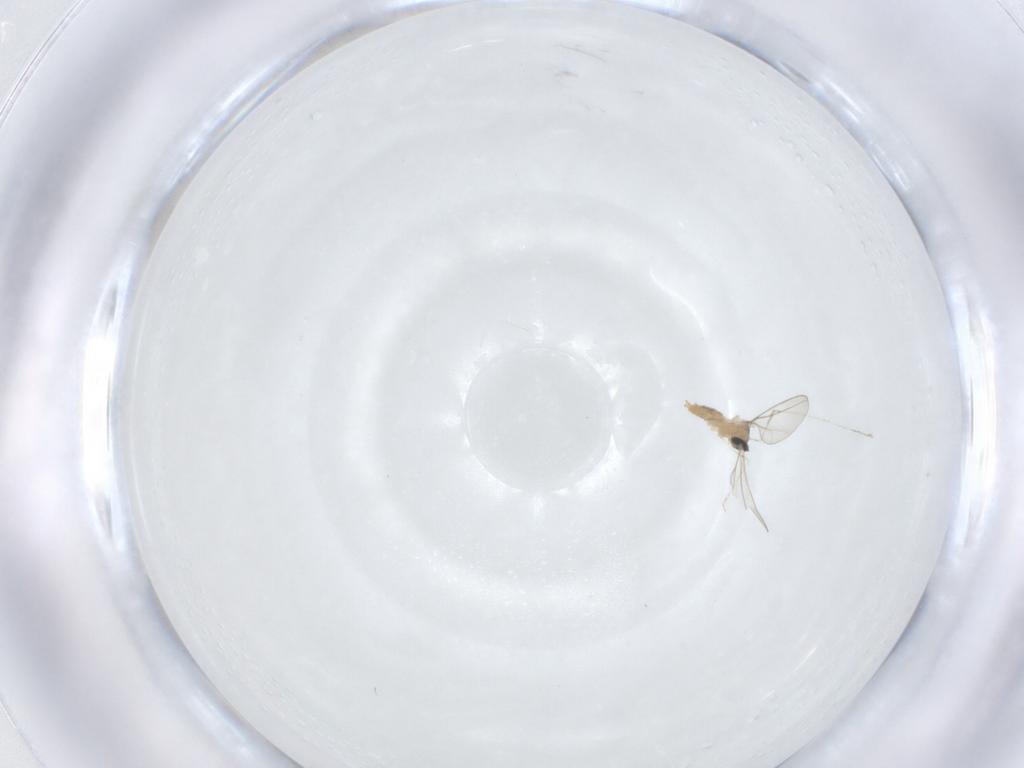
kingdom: Animalia
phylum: Arthropoda
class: Insecta
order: Diptera
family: Cecidomyiidae
